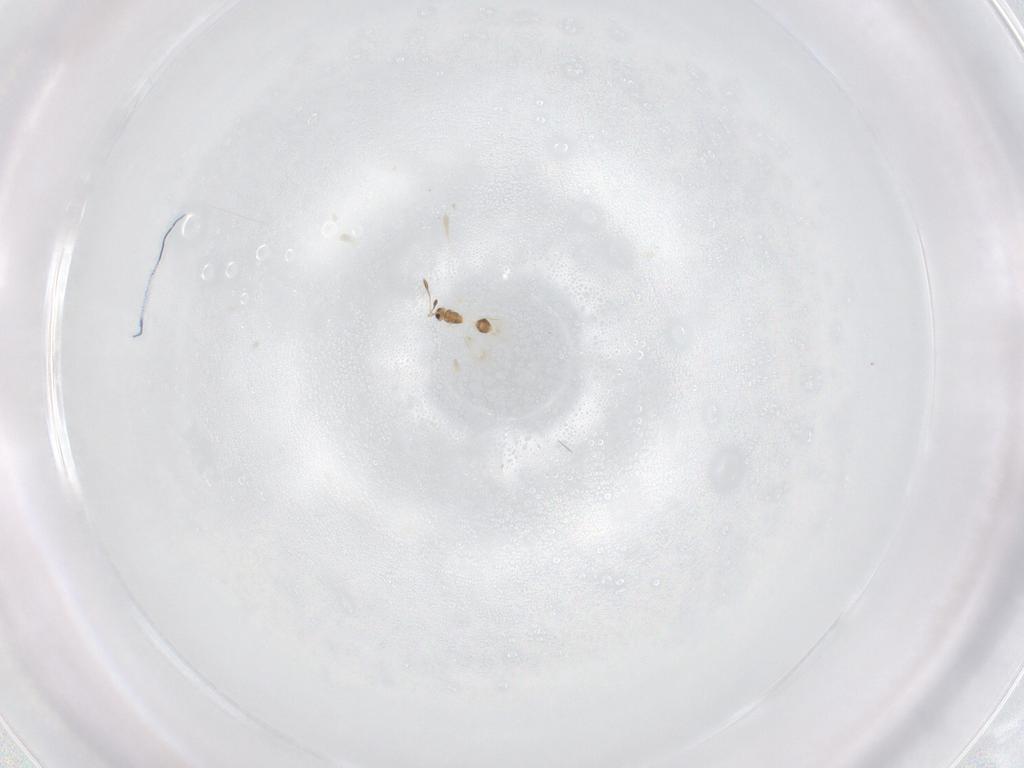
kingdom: Animalia
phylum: Arthropoda
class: Insecta
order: Hymenoptera
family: Mymarommatidae
